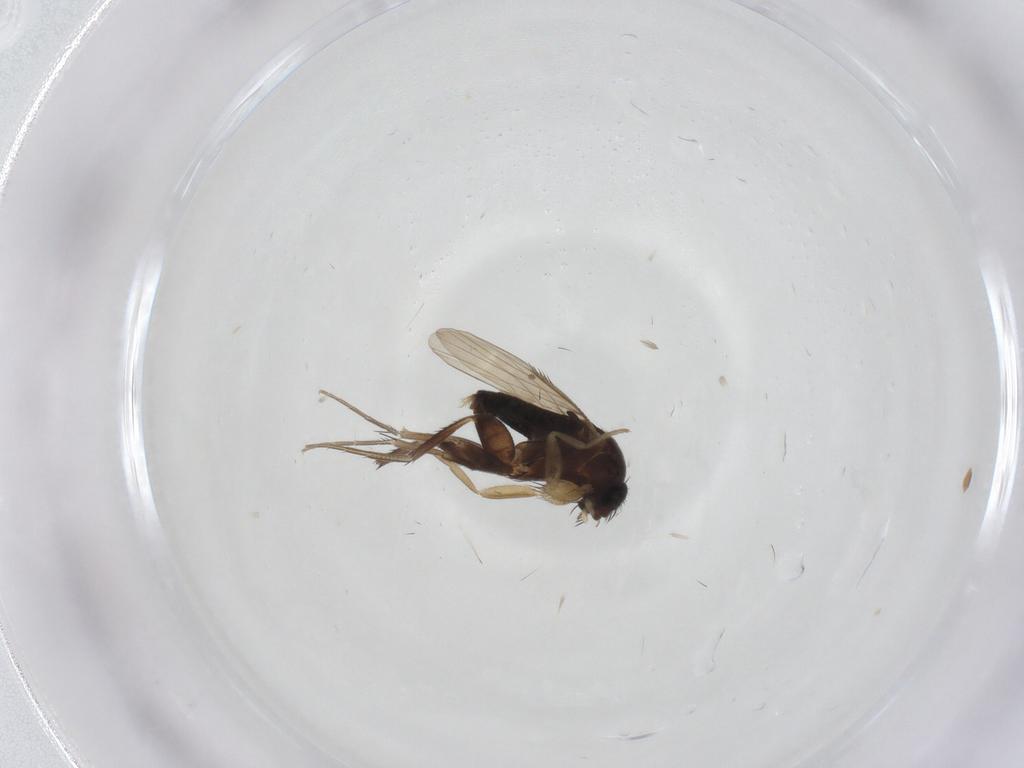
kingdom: Animalia
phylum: Arthropoda
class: Insecta
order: Diptera
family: Phoridae
